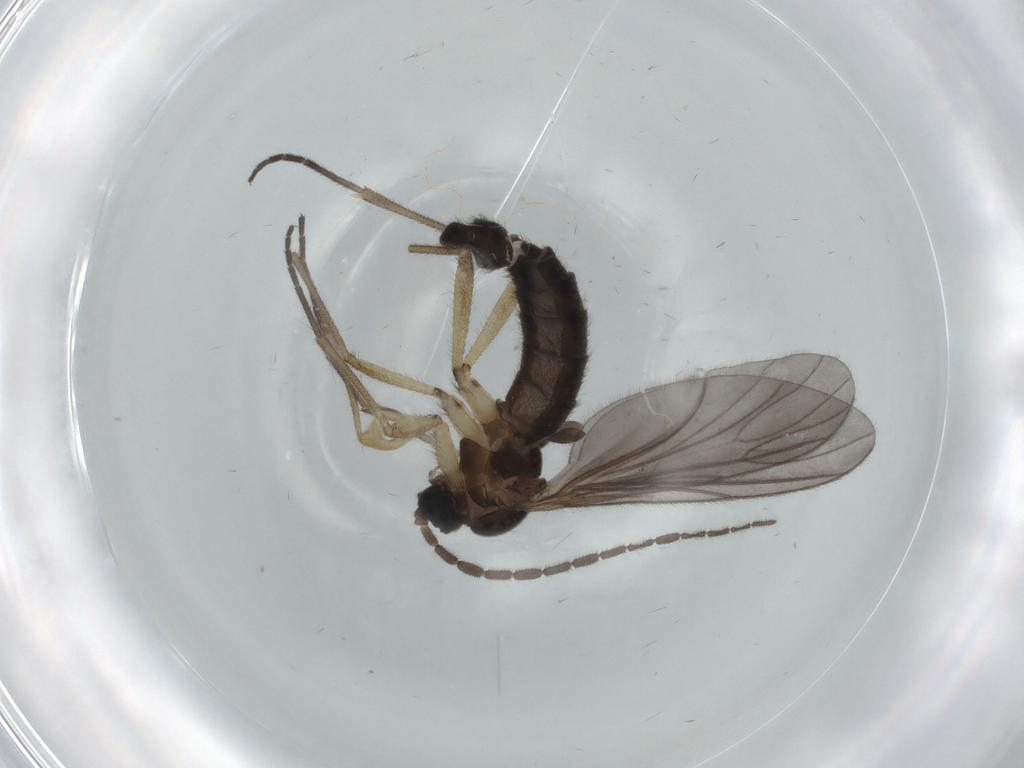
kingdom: Animalia
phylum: Arthropoda
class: Insecta
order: Diptera
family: Sciaridae
